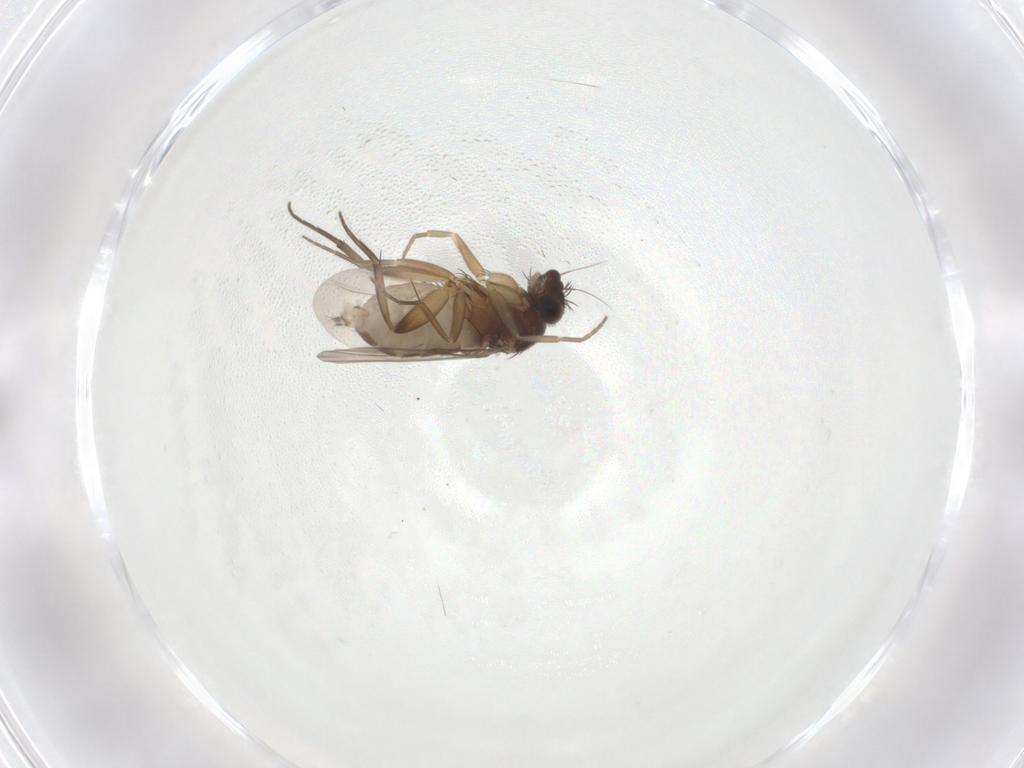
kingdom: Animalia
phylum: Arthropoda
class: Insecta
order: Diptera
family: Phoridae
